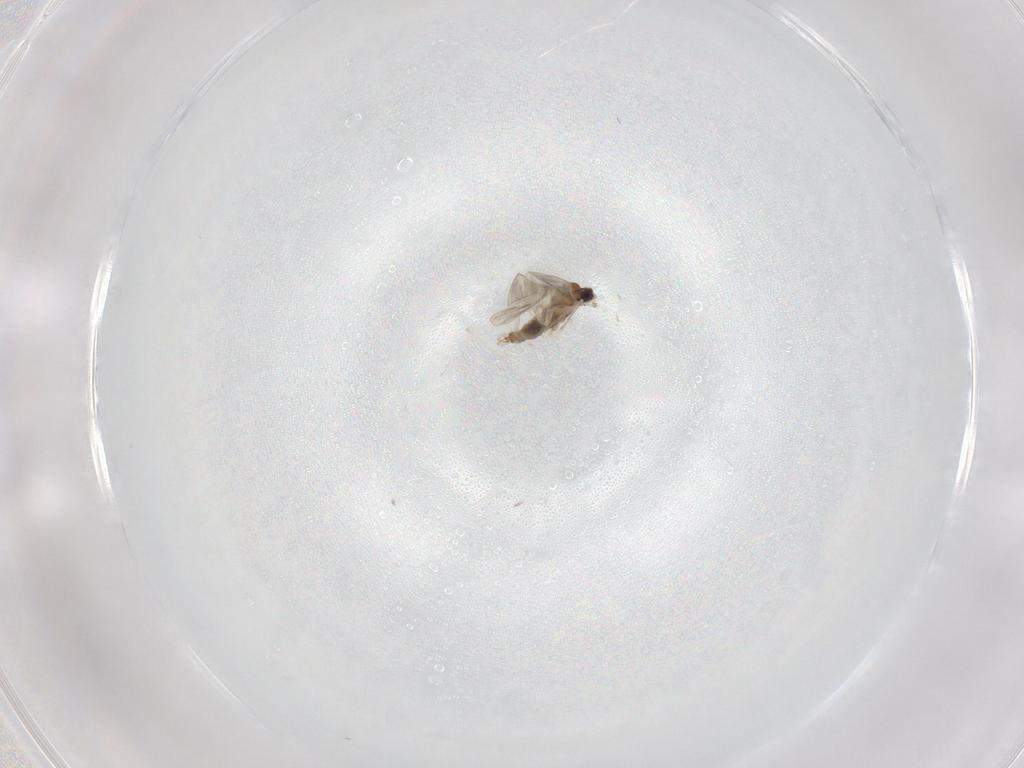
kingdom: Animalia
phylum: Arthropoda
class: Insecta
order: Diptera
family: Cecidomyiidae
